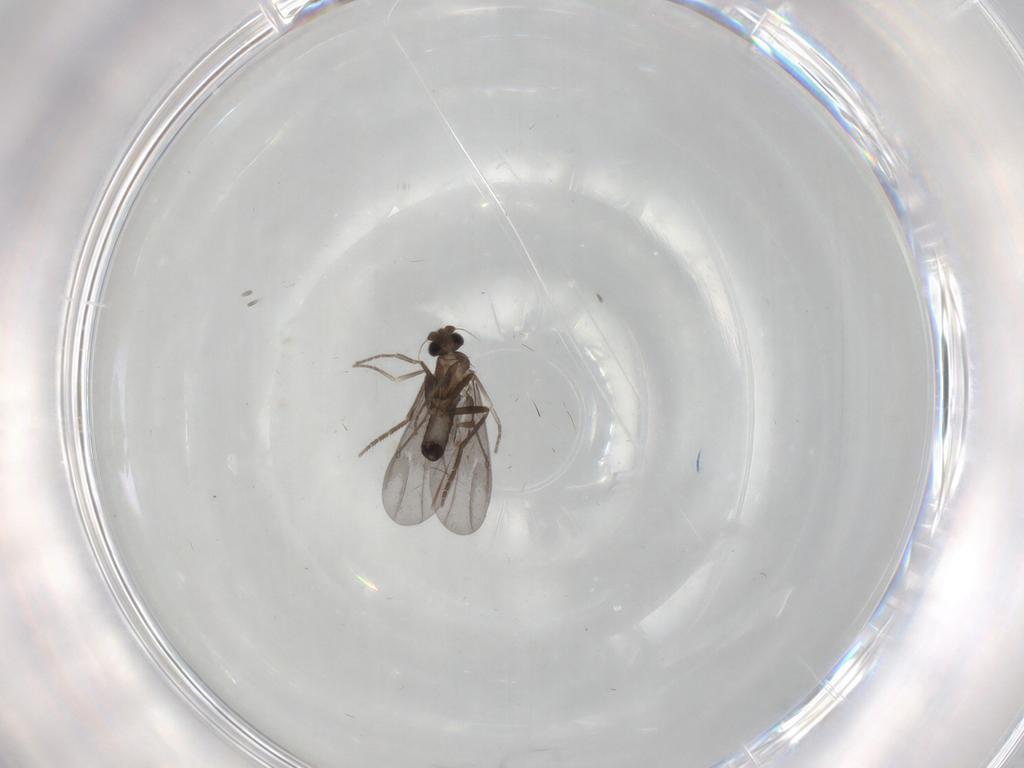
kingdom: Animalia
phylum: Arthropoda
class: Insecta
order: Diptera
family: Phoridae
